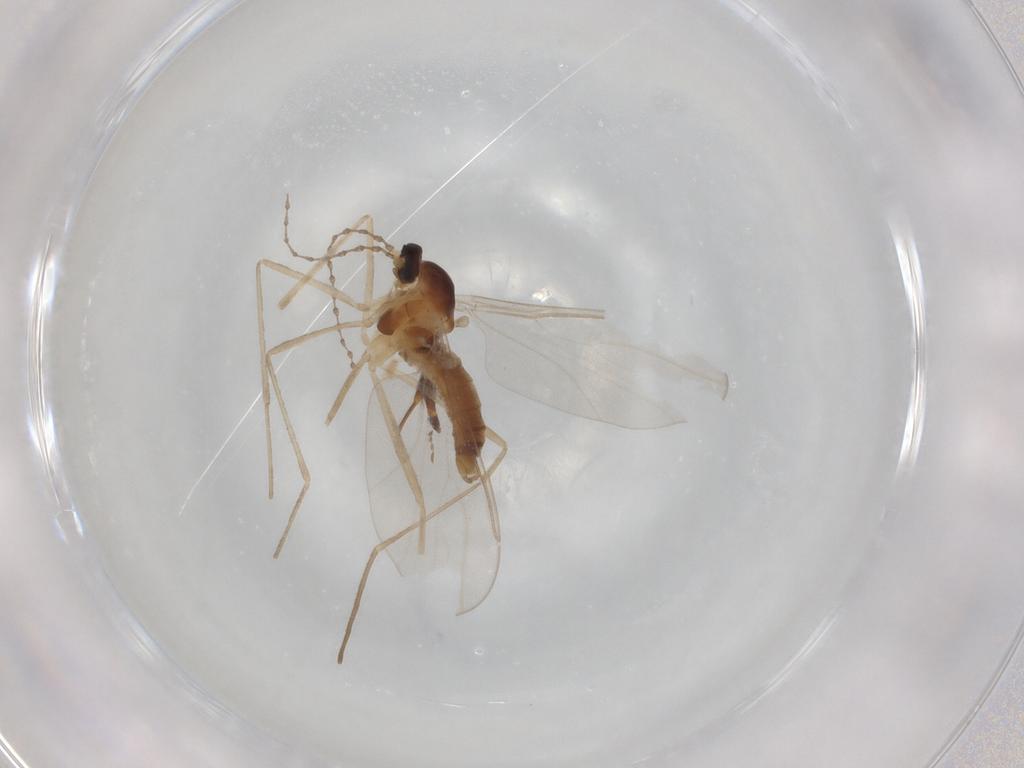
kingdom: Animalia
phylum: Arthropoda
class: Insecta
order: Diptera
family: Cecidomyiidae
